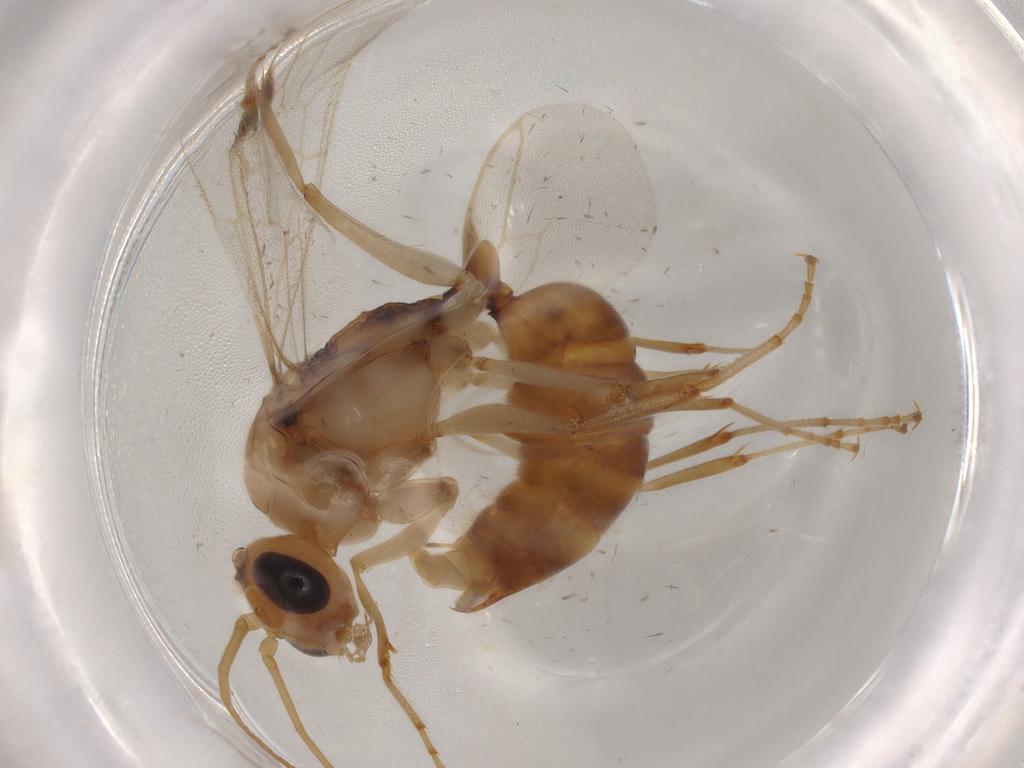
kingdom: Animalia
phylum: Arthropoda
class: Insecta
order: Hymenoptera
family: Formicidae
